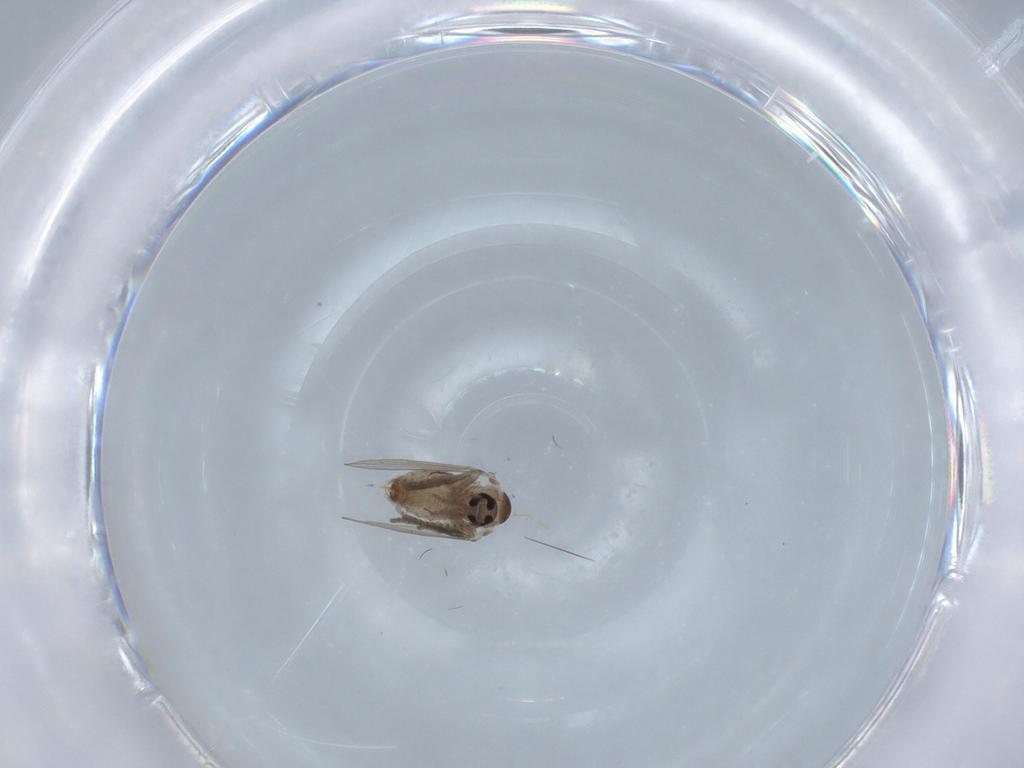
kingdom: Animalia
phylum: Arthropoda
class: Insecta
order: Diptera
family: Psychodidae
